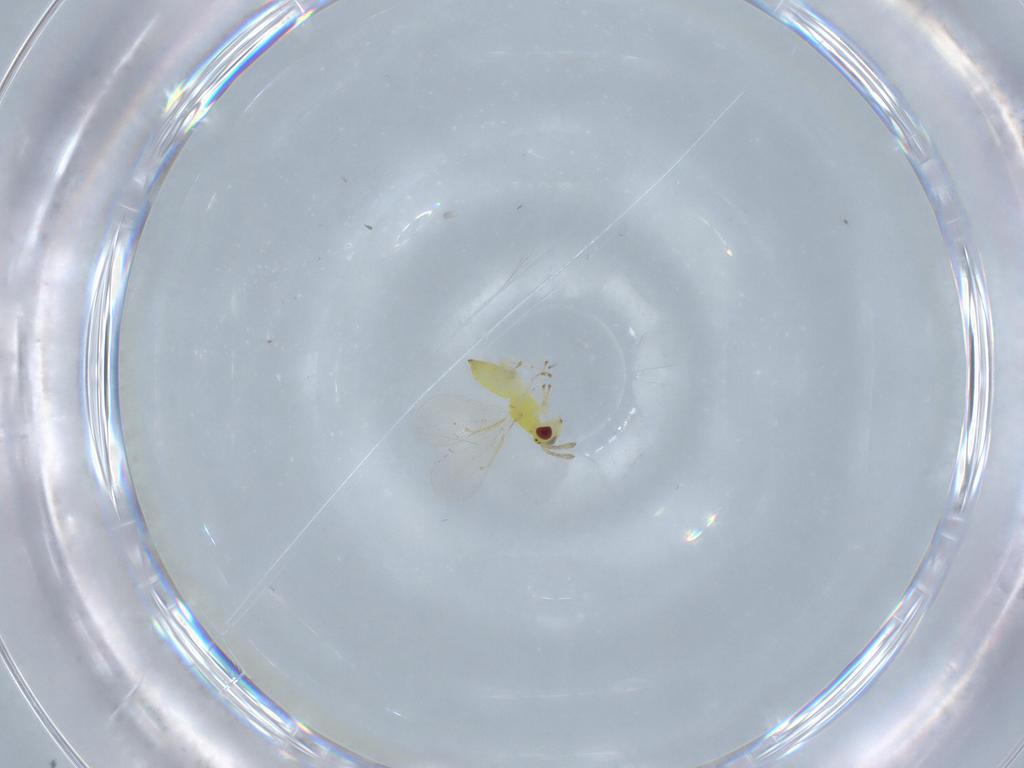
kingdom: Animalia
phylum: Arthropoda
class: Insecta
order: Hymenoptera
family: Eulophidae
